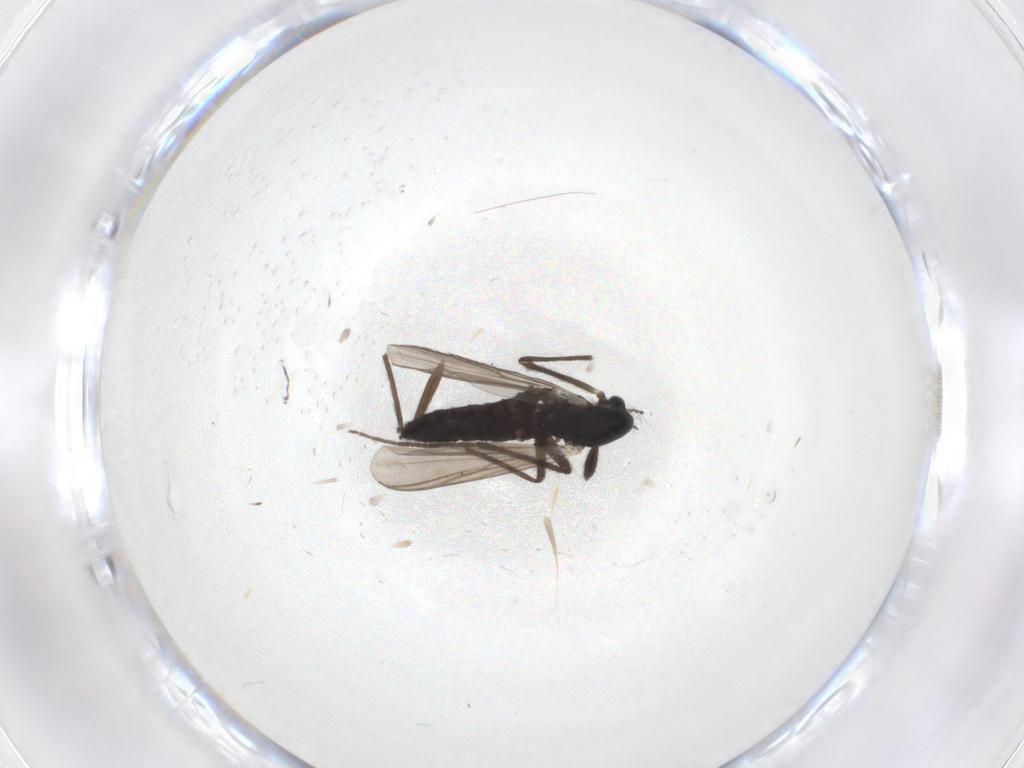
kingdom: Animalia
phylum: Arthropoda
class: Insecta
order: Diptera
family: Chironomidae
